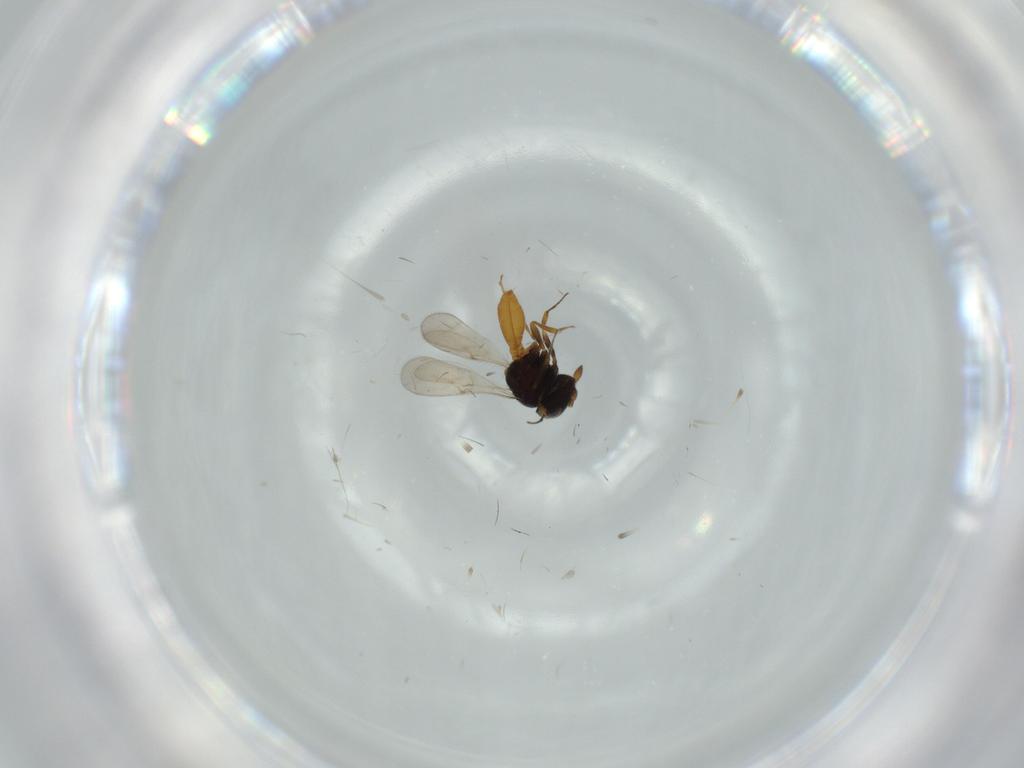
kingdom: Animalia
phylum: Arthropoda
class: Insecta
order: Hymenoptera
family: Scelionidae
